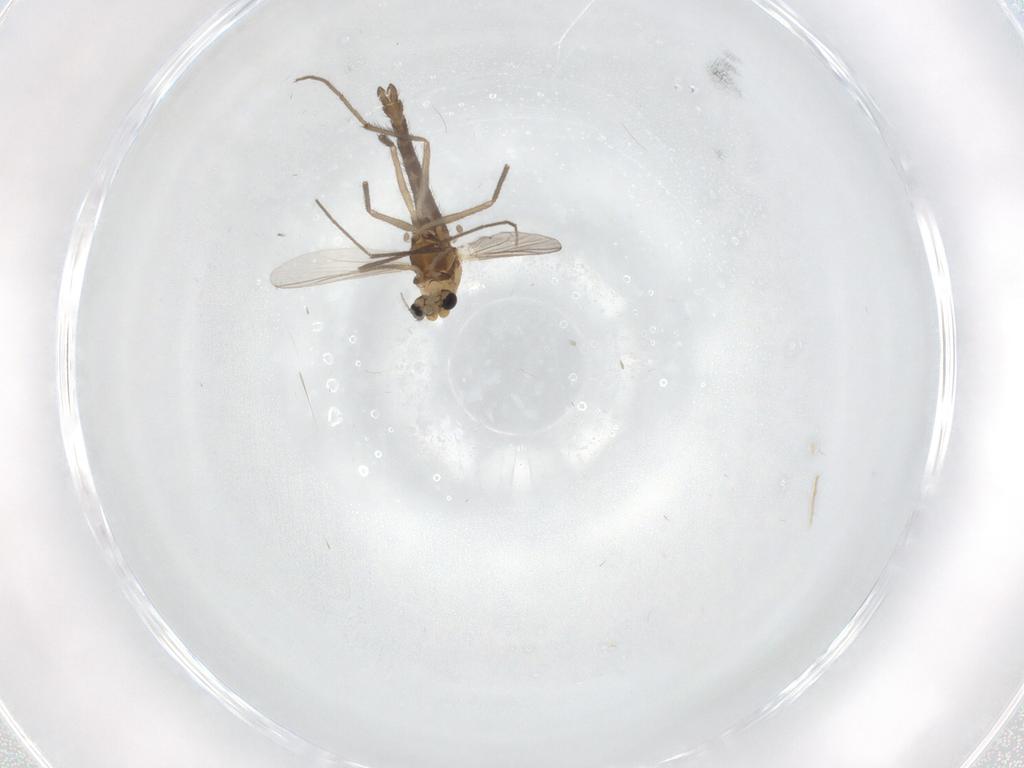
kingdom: Animalia
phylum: Arthropoda
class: Insecta
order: Diptera
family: Chironomidae
